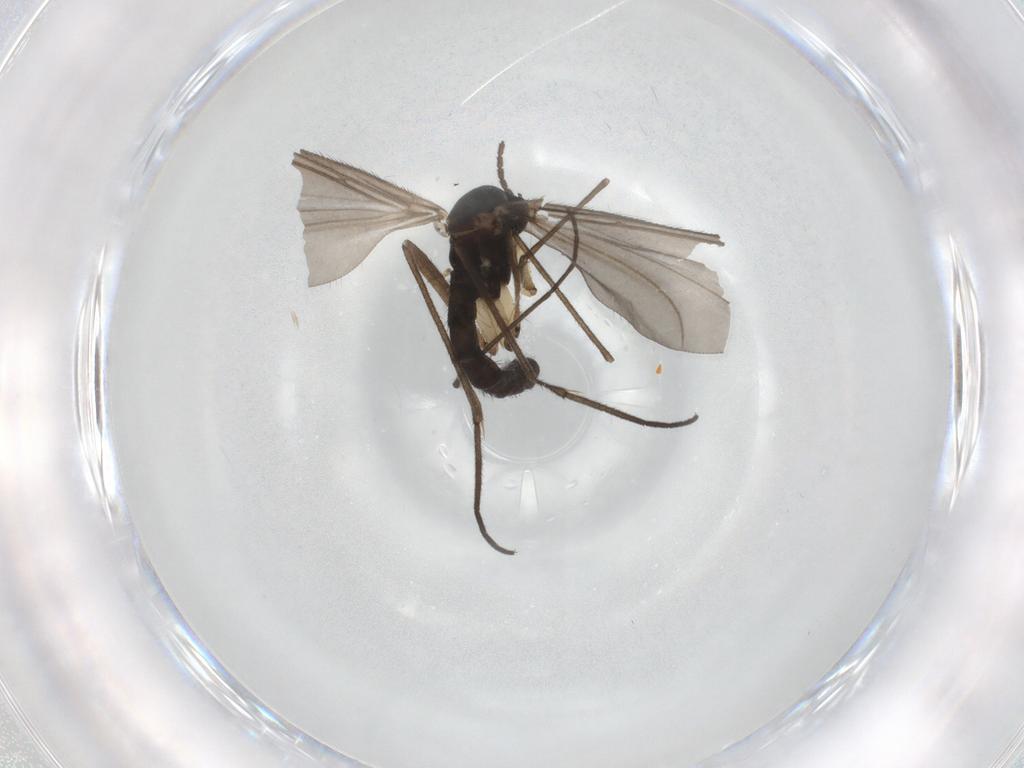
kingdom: Animalia
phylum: Arthropoda
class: Insecta
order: Diptera
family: Sciaridae
